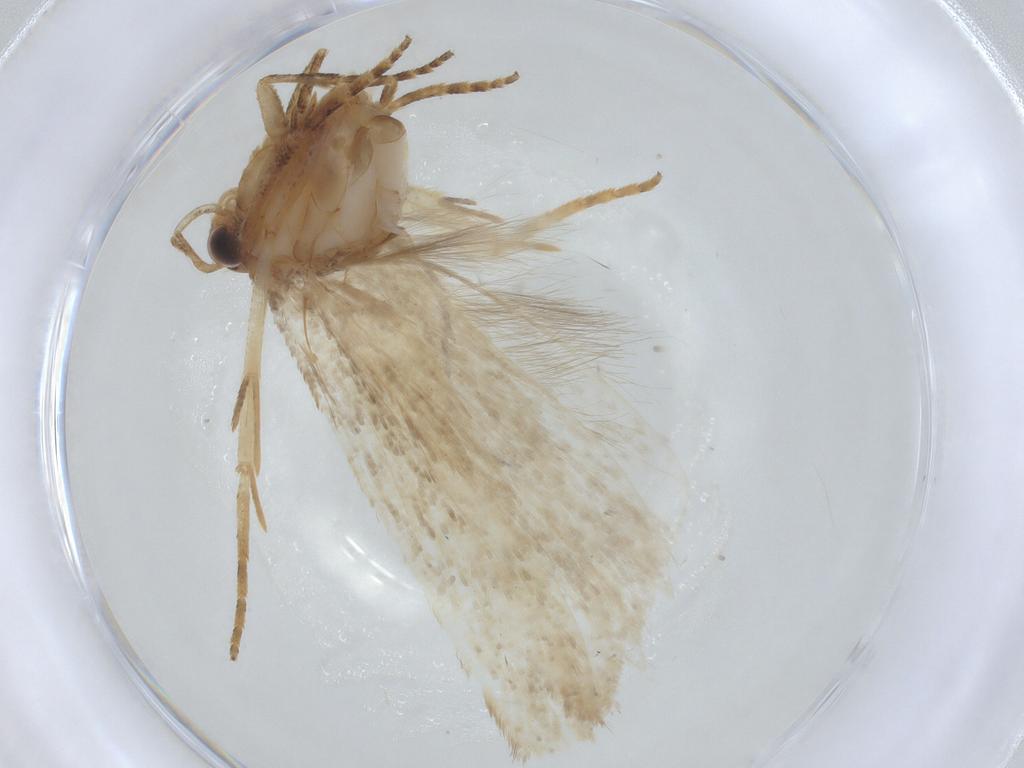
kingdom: Animalia
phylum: Arthropoda
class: Insecta
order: Lepidoptera
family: Gelechiidae
